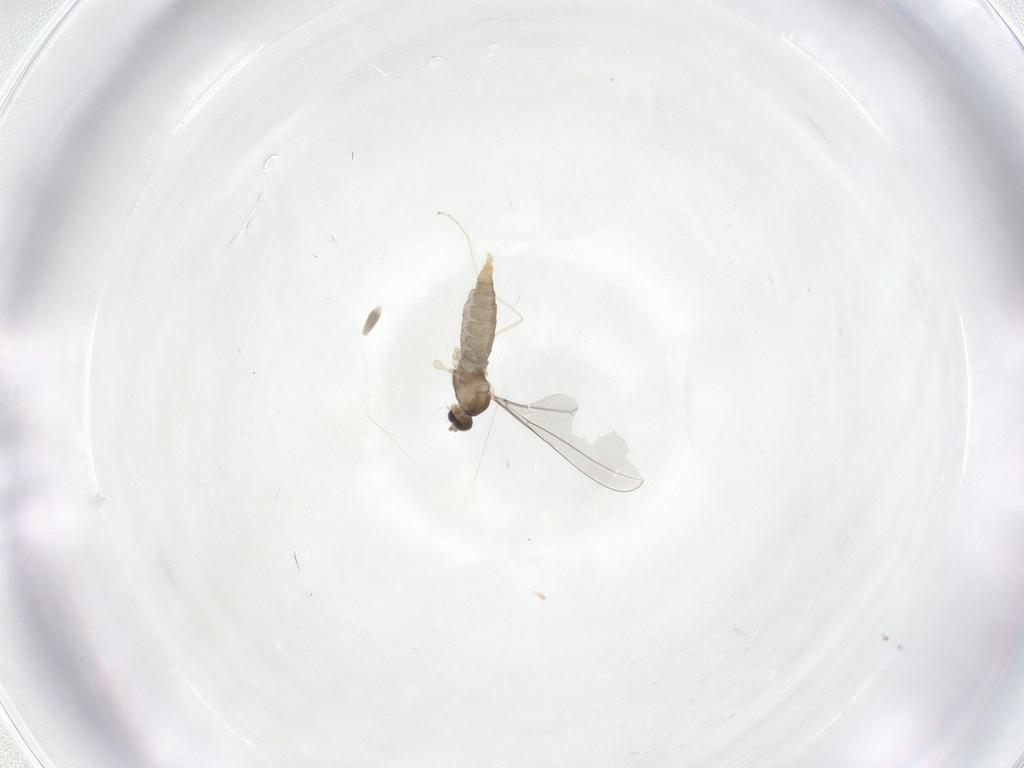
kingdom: Animalia
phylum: Arthropoda
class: Insecta
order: Diptera
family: Cecidomyiidae
